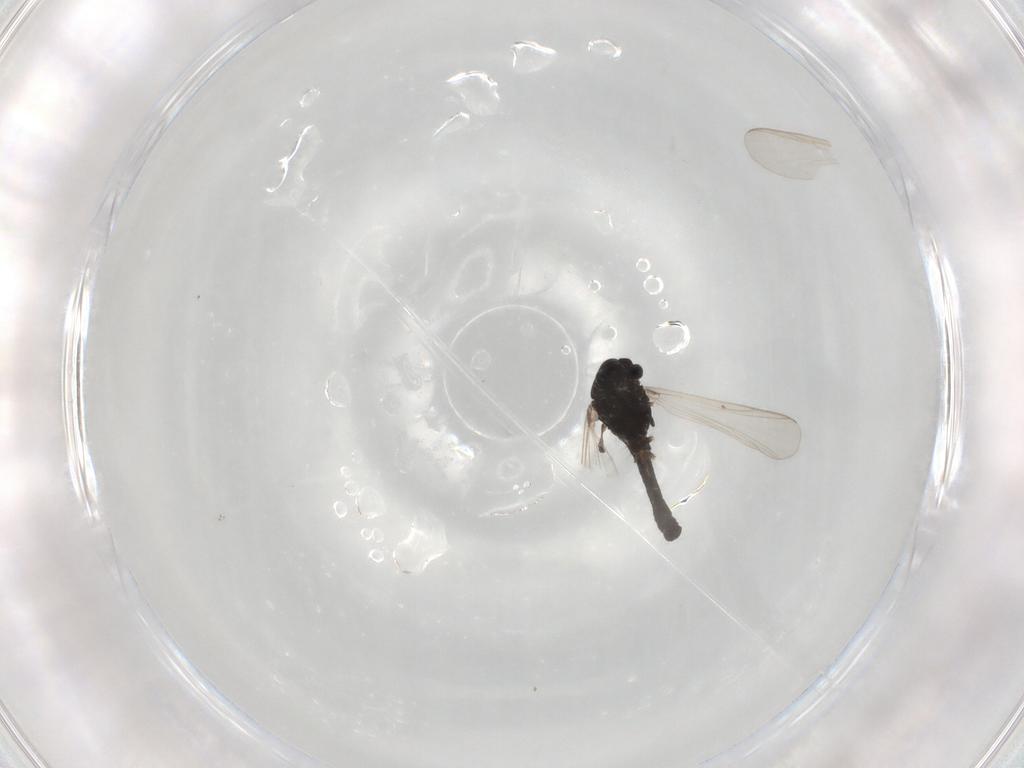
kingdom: Animalia
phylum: Arthropoda
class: Insecta
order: Diptera
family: Chironomidae
